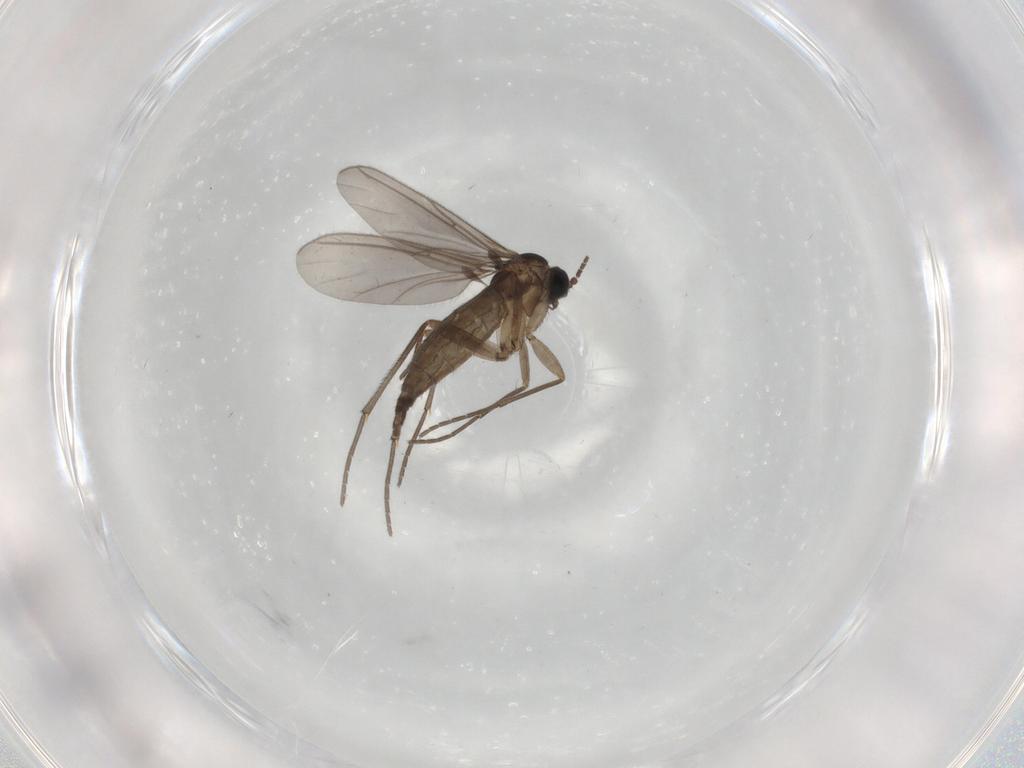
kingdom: Animalia
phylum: Arthropoda
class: Insecta
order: Diptera
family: Sciaridae
